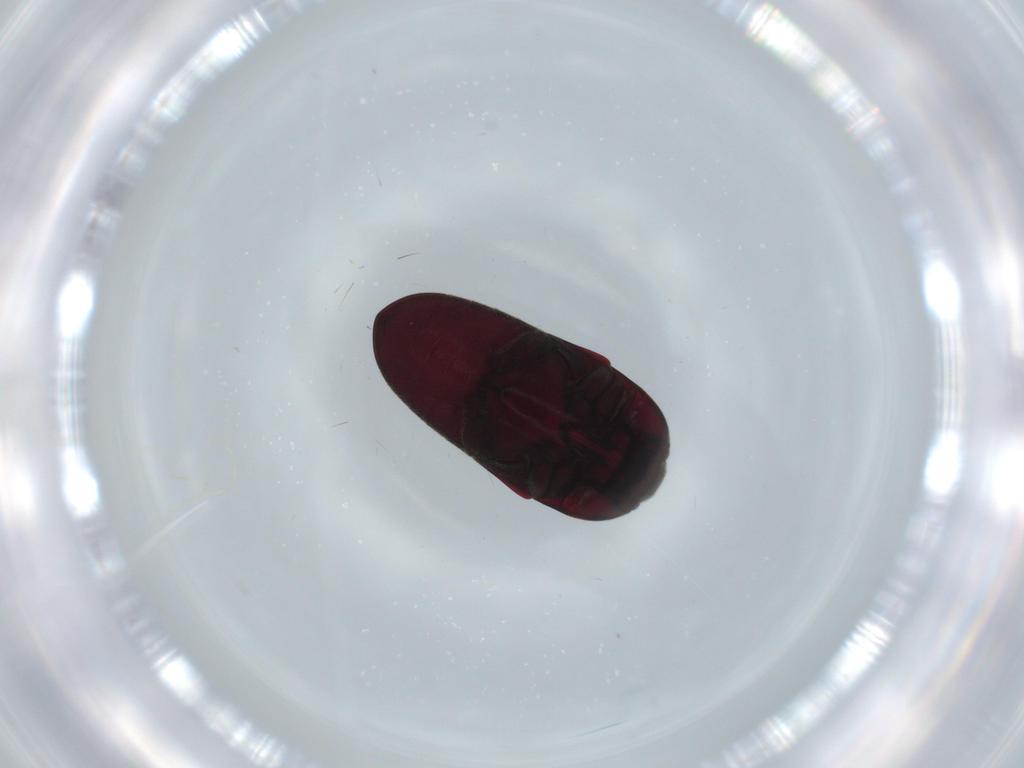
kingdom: Animalia
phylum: Arthropoda
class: Insecta
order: Coleoptera
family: Throscidae
